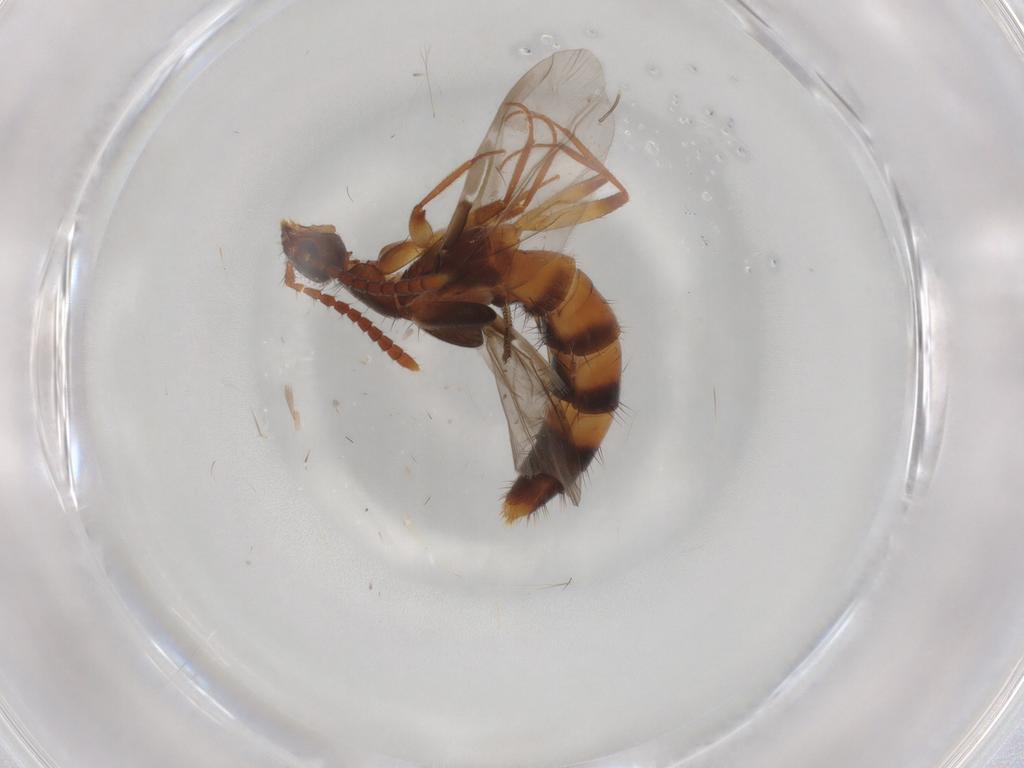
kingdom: Animalia
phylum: Arthropoda
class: Insecta
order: Coleoptera
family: Staphylinidae
